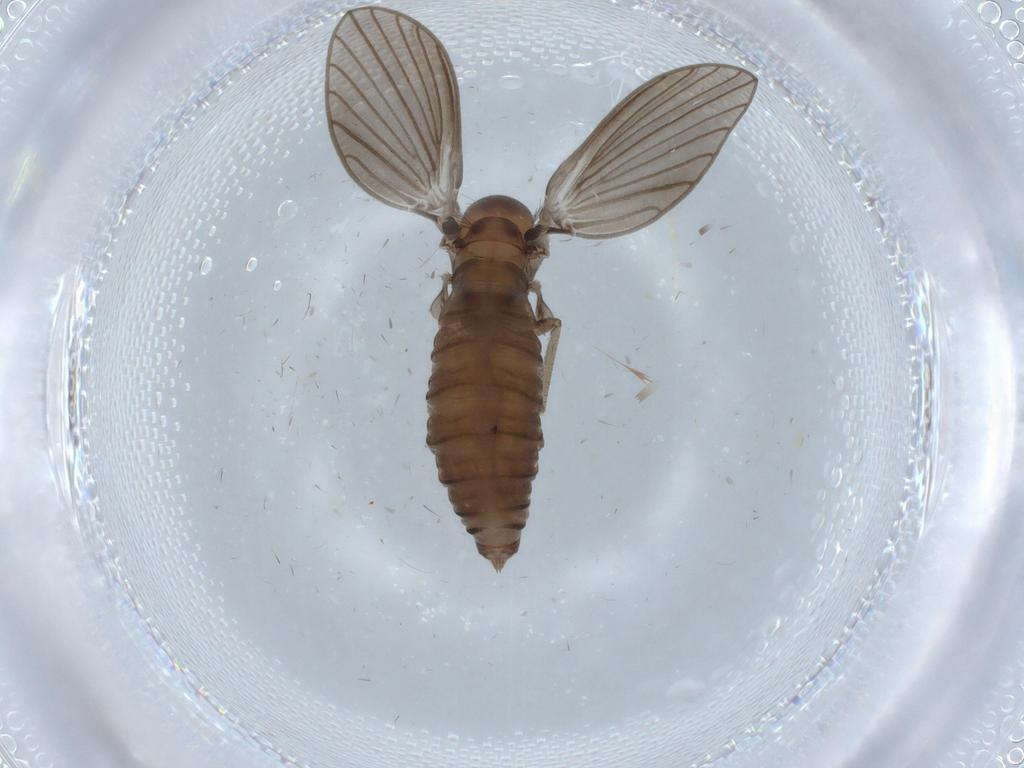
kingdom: Animalia
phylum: Arthropoda
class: Insecta
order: Diptera
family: Psychodidae
